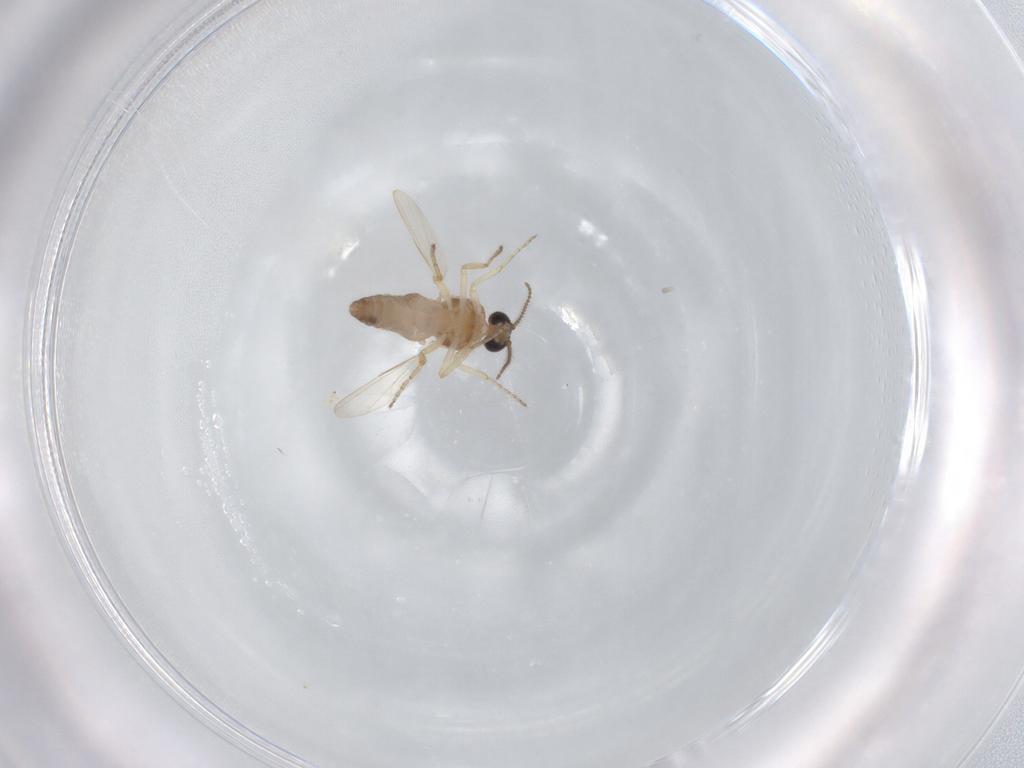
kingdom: Animalia
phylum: Arthropoda
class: Insecta
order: Diptera
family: Ceratopogonidae
